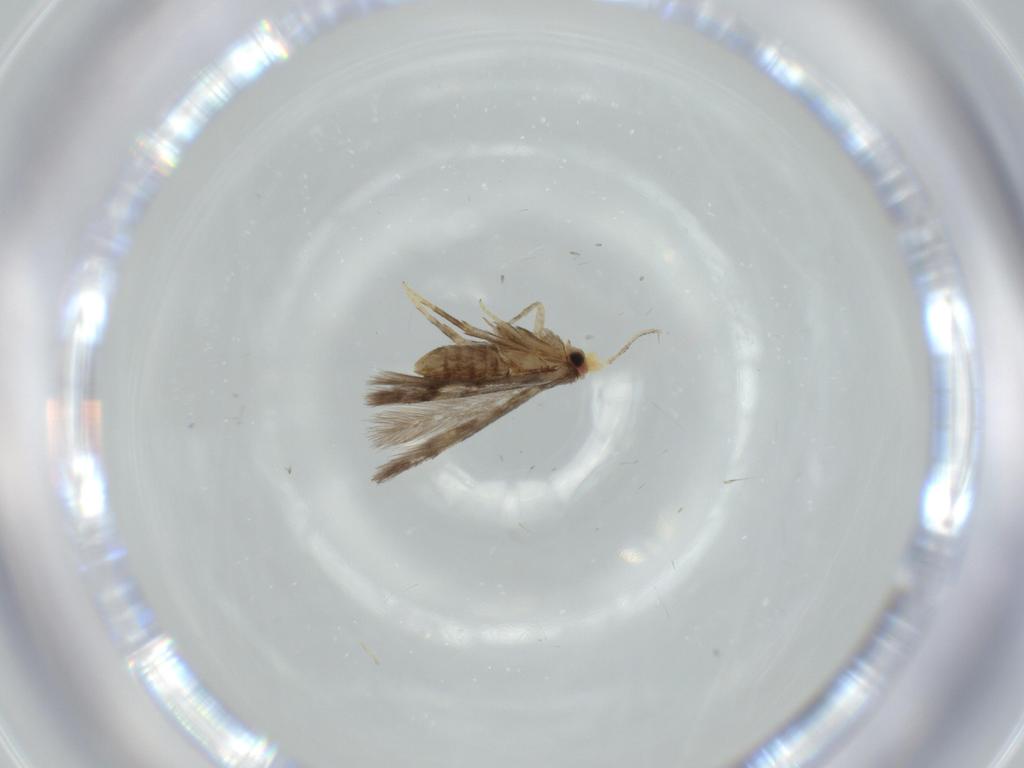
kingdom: Animalia
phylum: Arthropoda
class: Insecta
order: Lepidoptera
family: Nepticulidae
